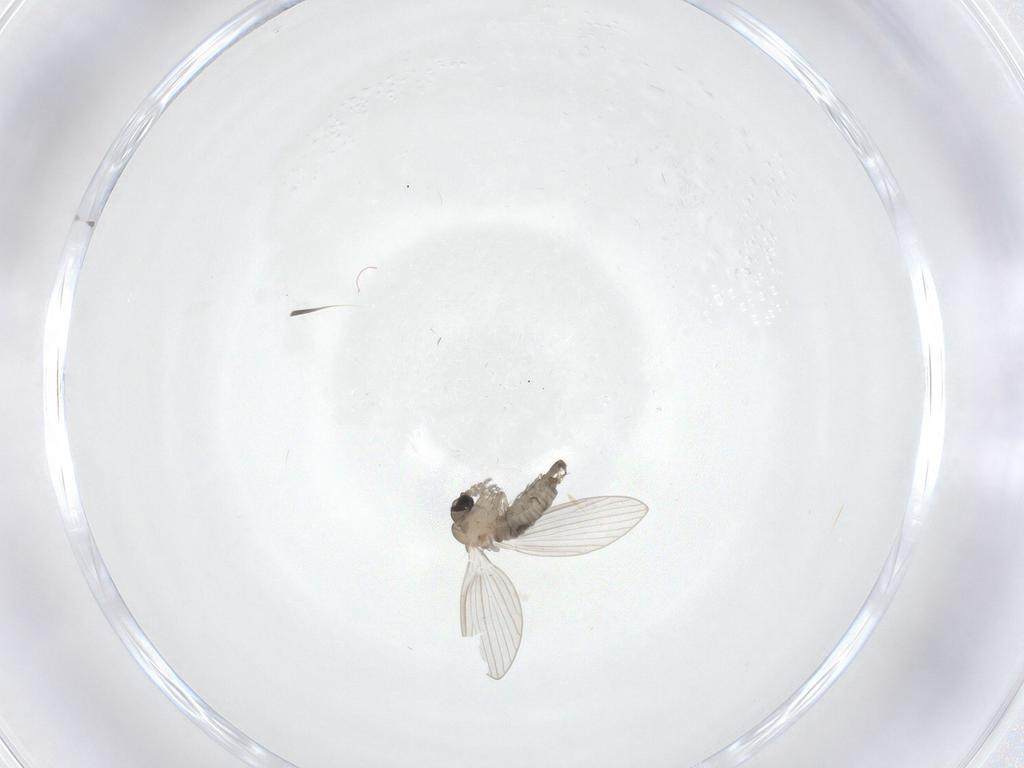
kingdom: Animalia
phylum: Arthropoda
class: Insecta
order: Diptera
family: Psychodidae
